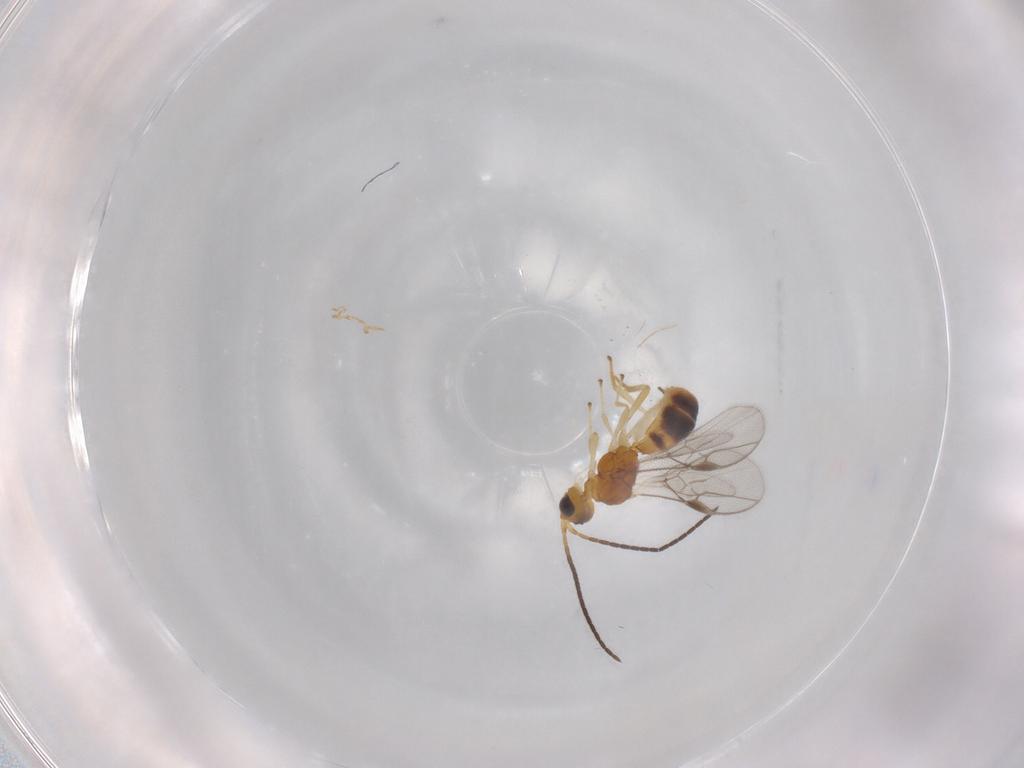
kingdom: Animalia
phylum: Arthropoda
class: Insecta
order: Hymenoptera
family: Braconidae
